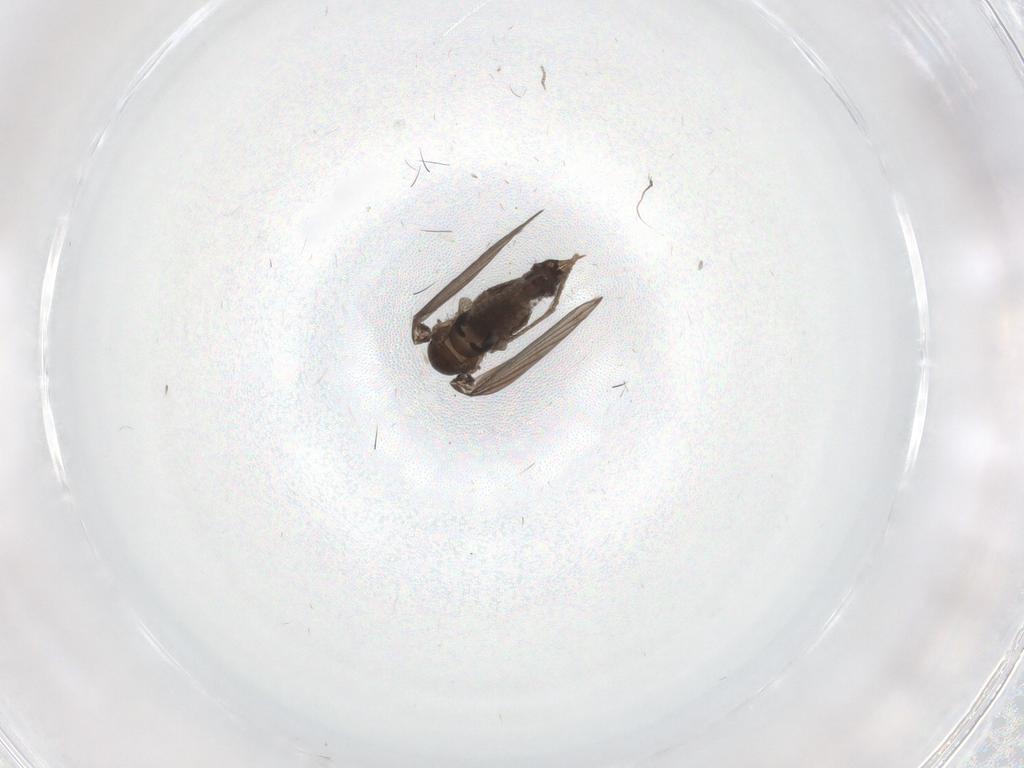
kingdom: Animalia
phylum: Arthropoda
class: Insecta
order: Diptera
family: Psychodidae
